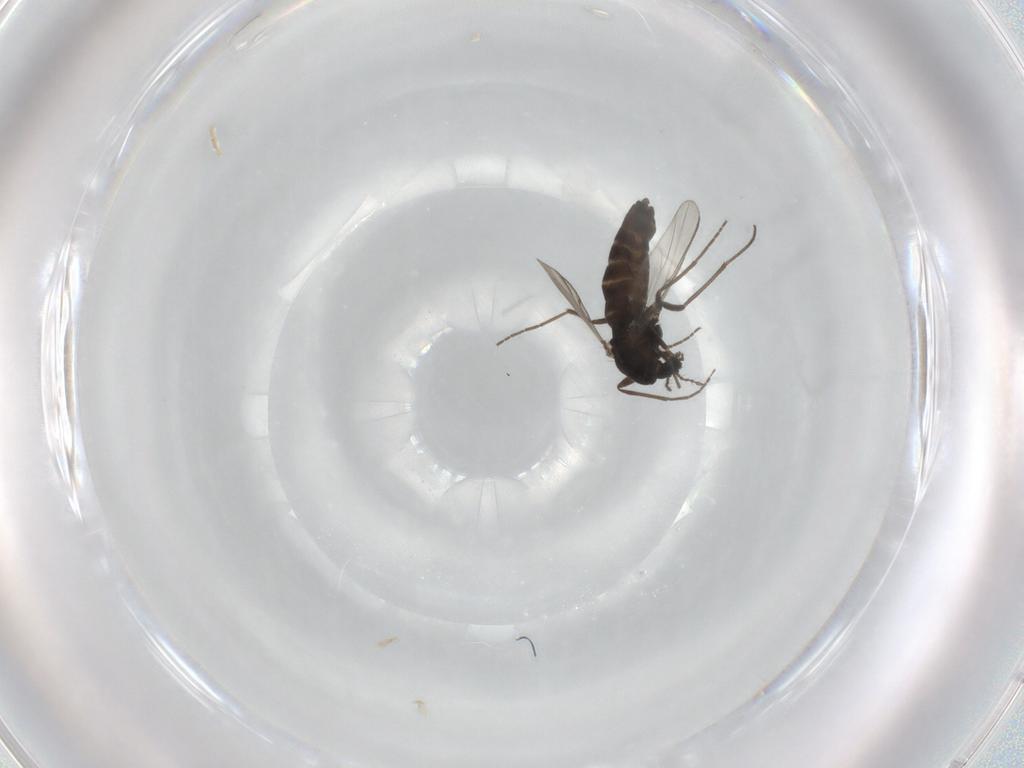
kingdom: Animalia
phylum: Arthropoda
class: Insecta
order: Diptera
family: Chironomidae
